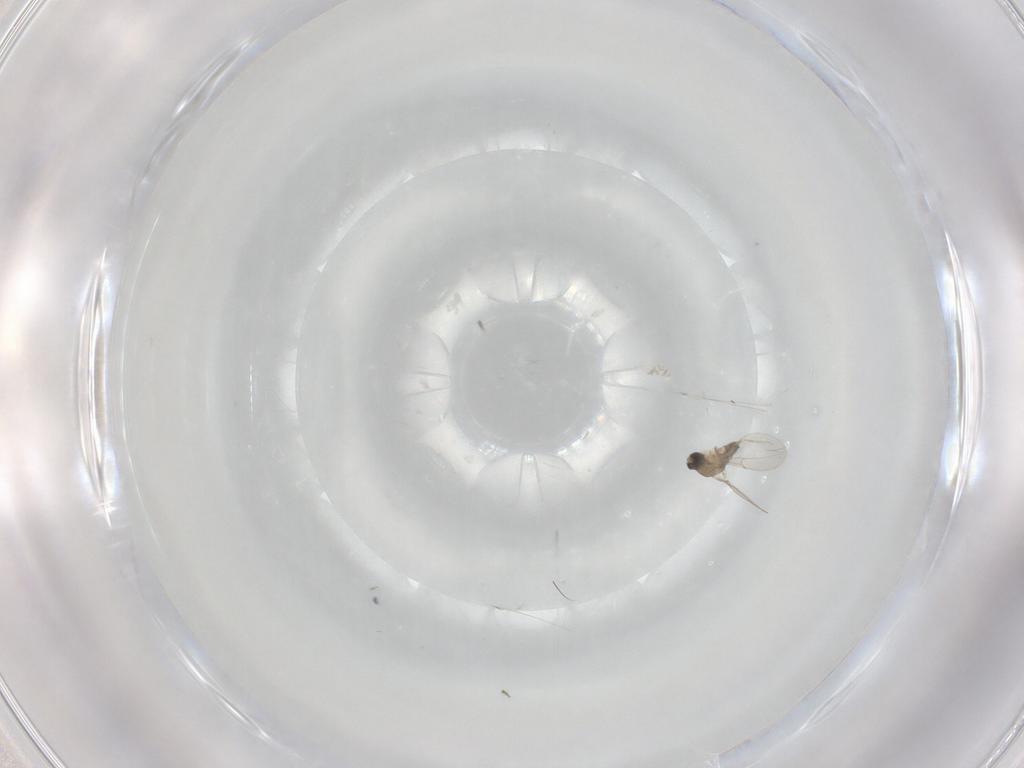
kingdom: Animalia
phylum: Arthropoda
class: Insecta
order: Diptera
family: Cecidomyiidae
